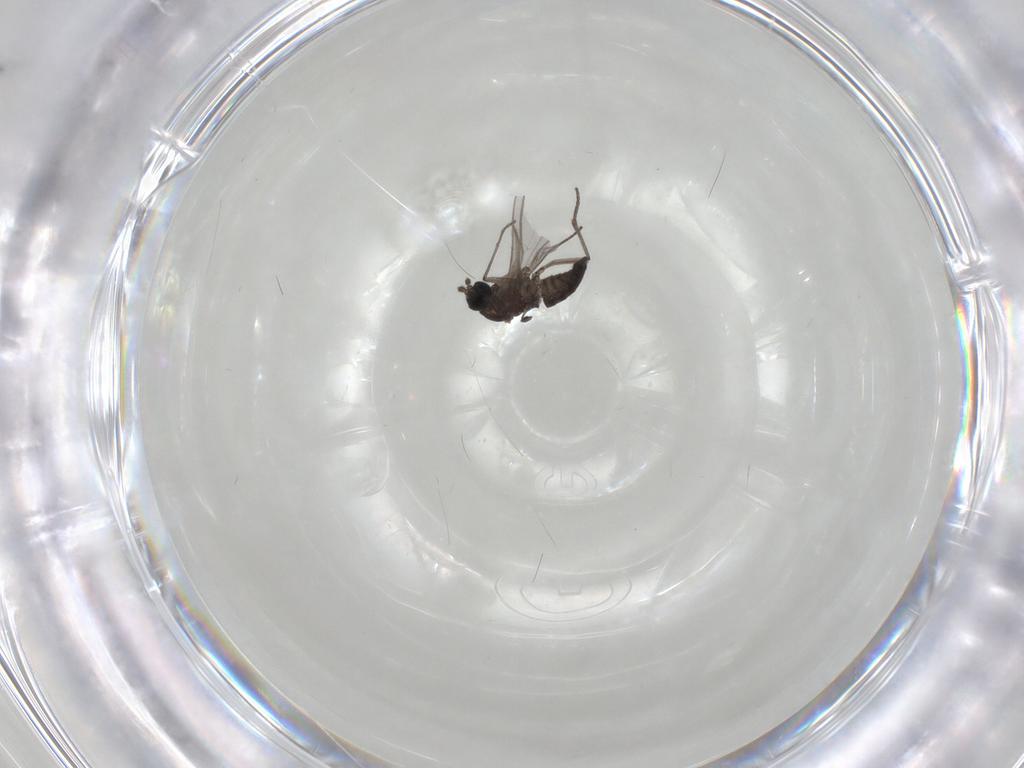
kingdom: Animalia
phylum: Arthropoda
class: Insecta
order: Diptera
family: Syrphidae
